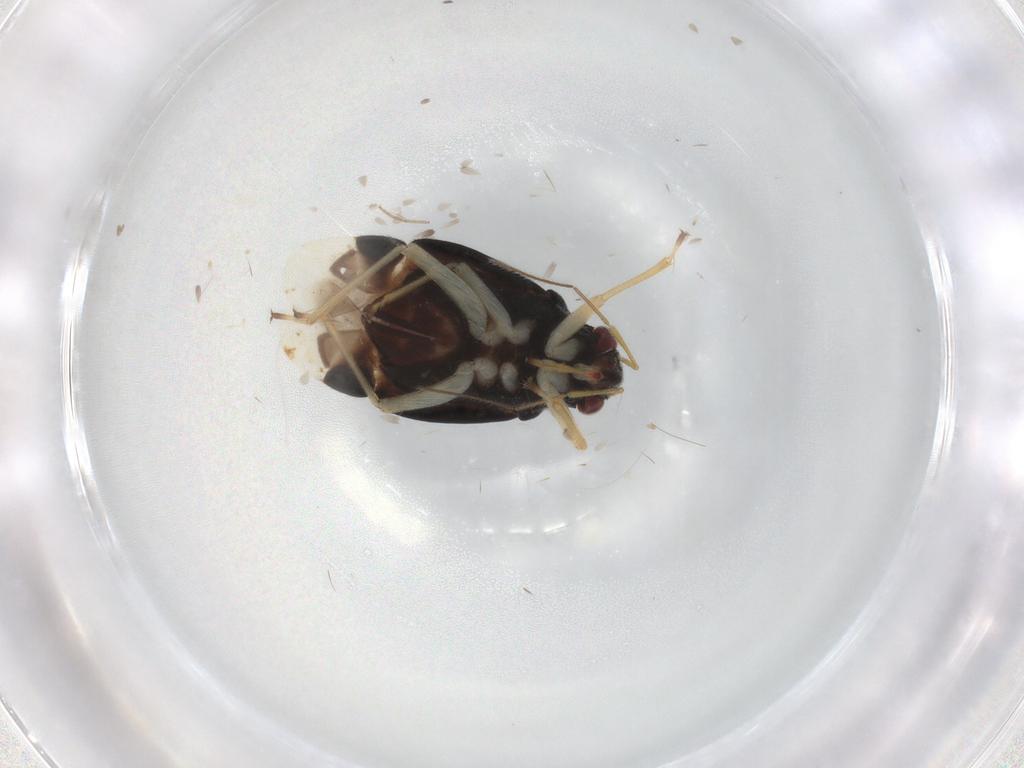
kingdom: Animalia
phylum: Arthropoda
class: Insecta
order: Hemiptera
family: Miridae
